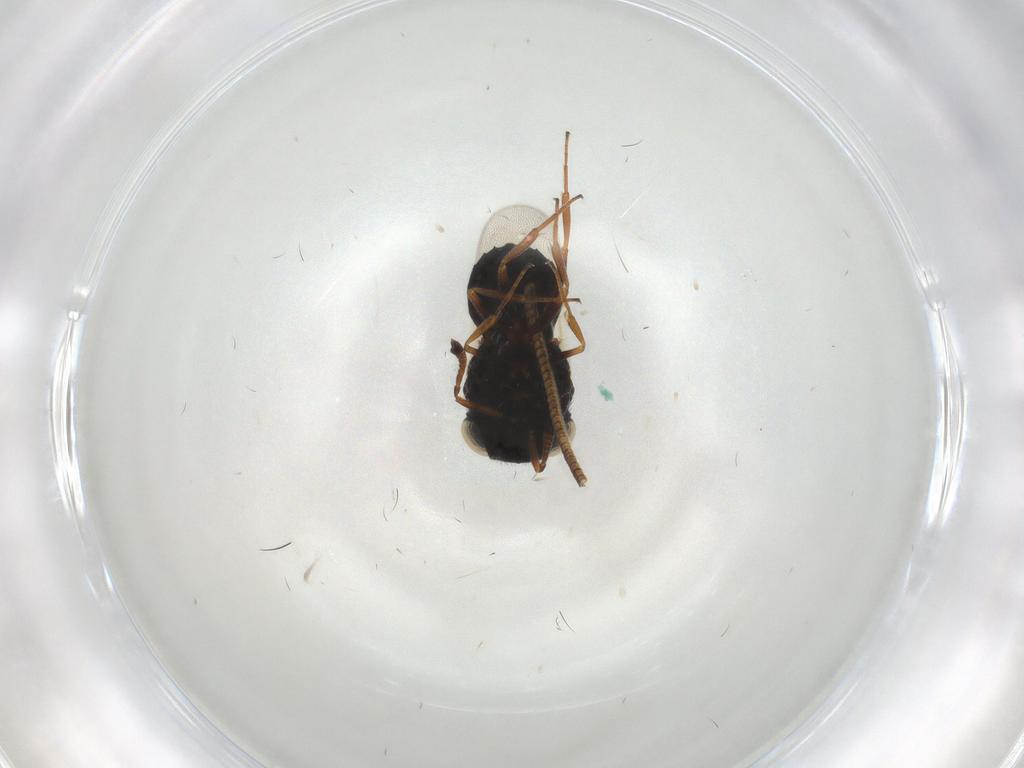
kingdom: Animalia
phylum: Arthropoda
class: Insecta
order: Hymenoptera
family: Scelionidae
